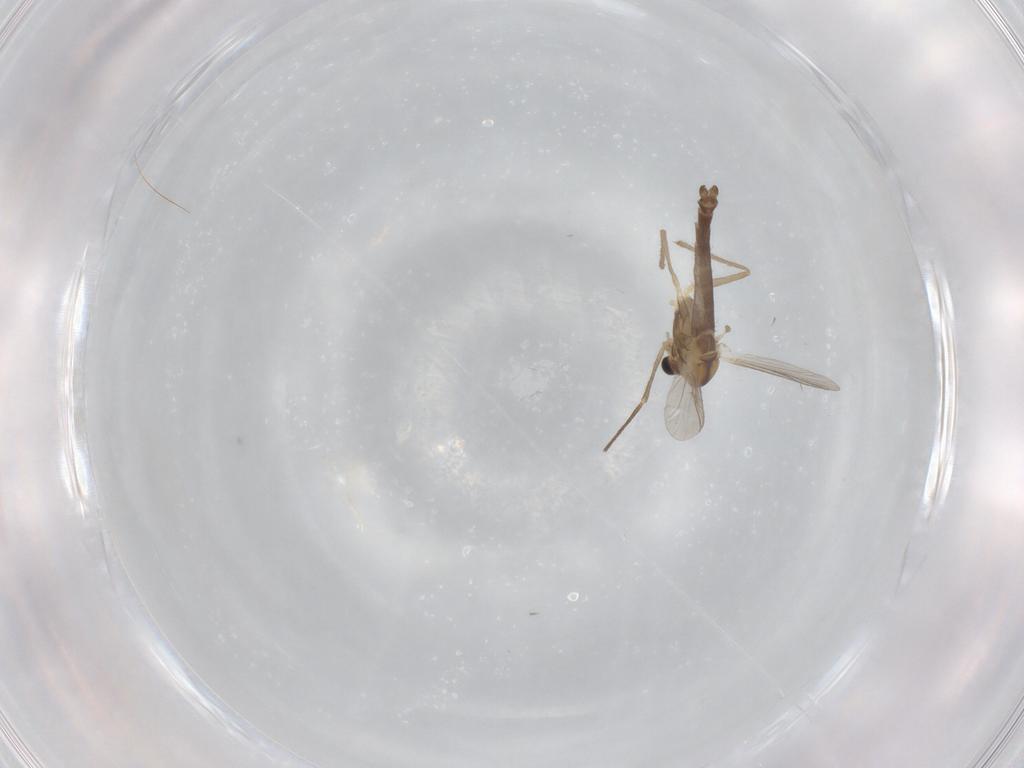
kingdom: Animalia
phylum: Arthropoda
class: Insecta
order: Diptera
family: Chironomidae
